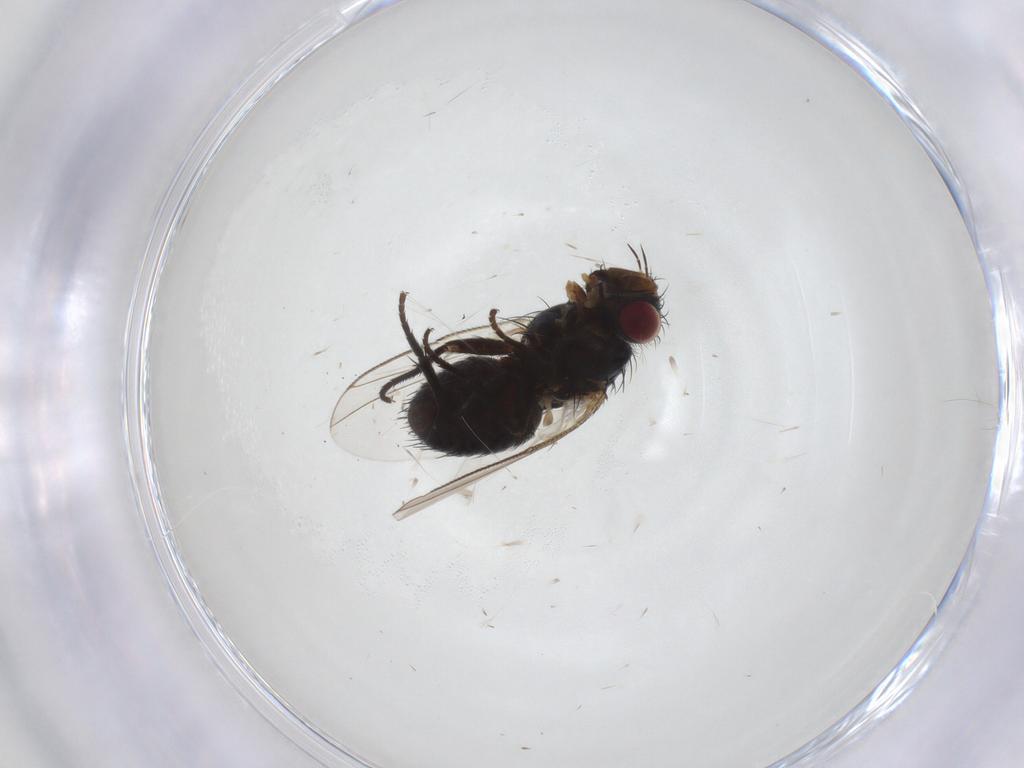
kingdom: Animalia
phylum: Arthropoda
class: Insecta
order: Diptera
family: Tachinidae
